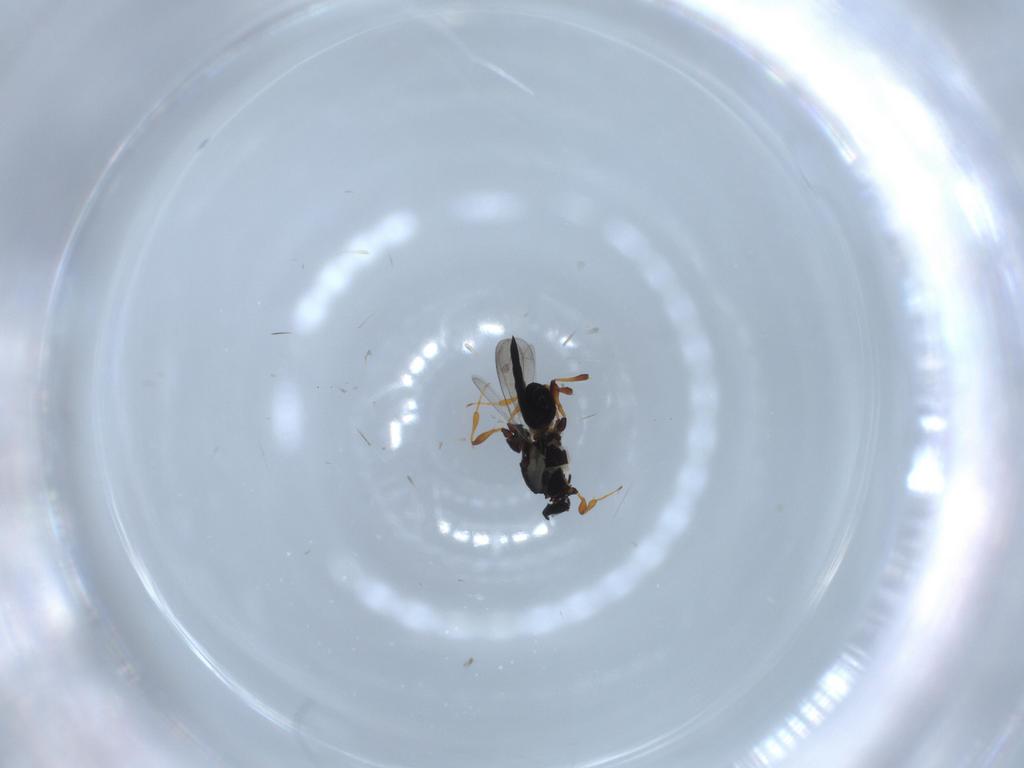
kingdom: Animalia
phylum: Arthropoda
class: Insecta
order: Hymenoptera
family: Platygastridae
